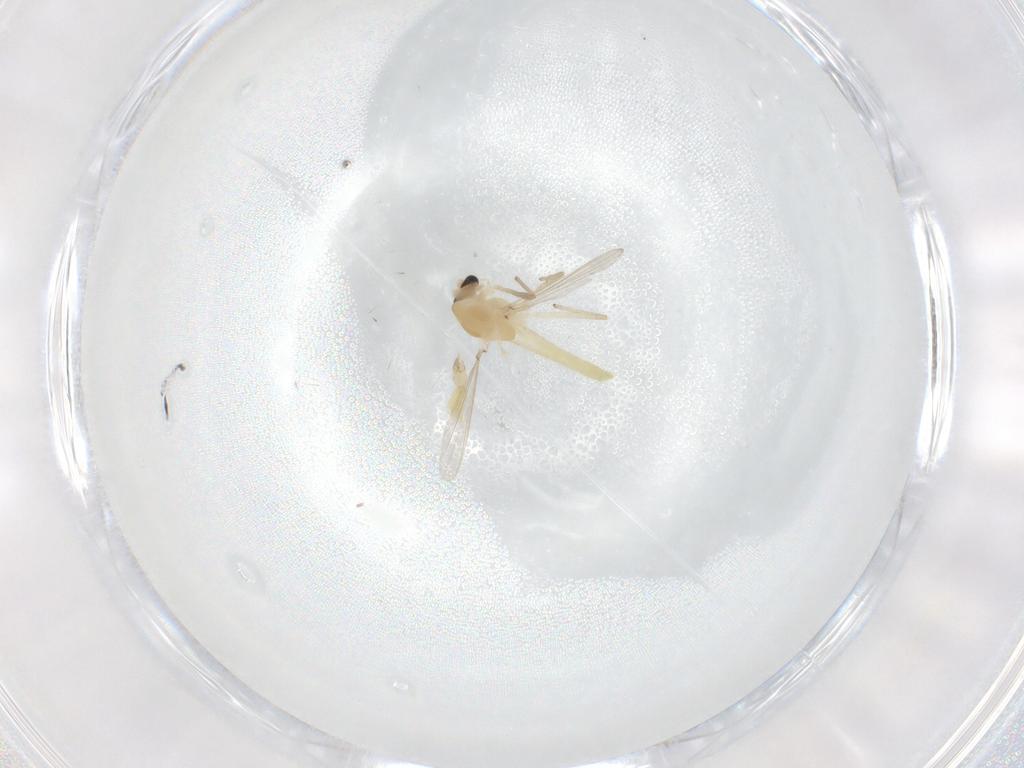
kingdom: Animalia
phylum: Arthropoda
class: Insecta
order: Diptera
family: Chironomidae
